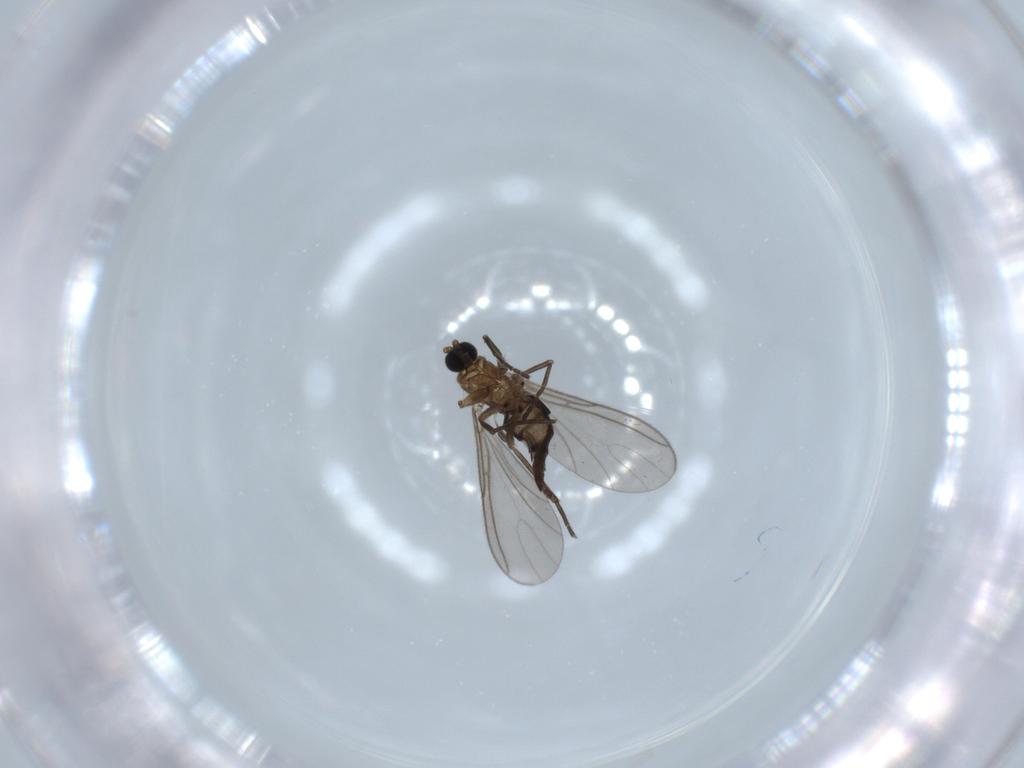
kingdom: Animalia
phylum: Arthropoda
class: Insecta
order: Diptera
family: Sciaridae
